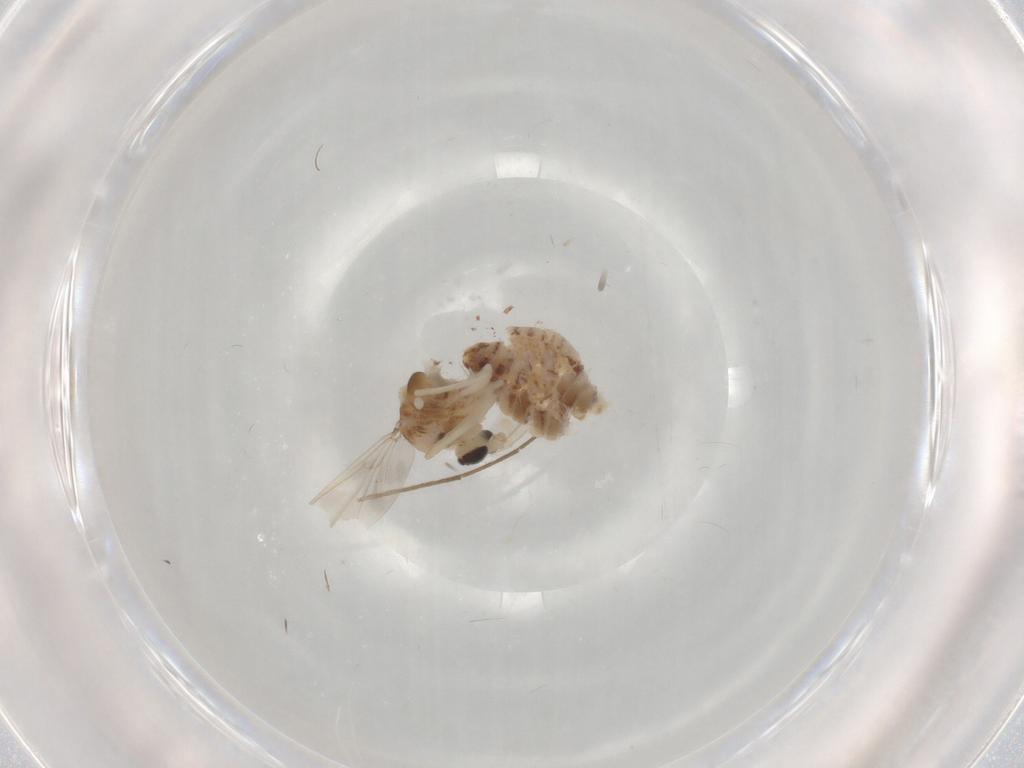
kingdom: Animalia
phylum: Arthropoda
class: Insecta
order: Diptera
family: Chironomidae
